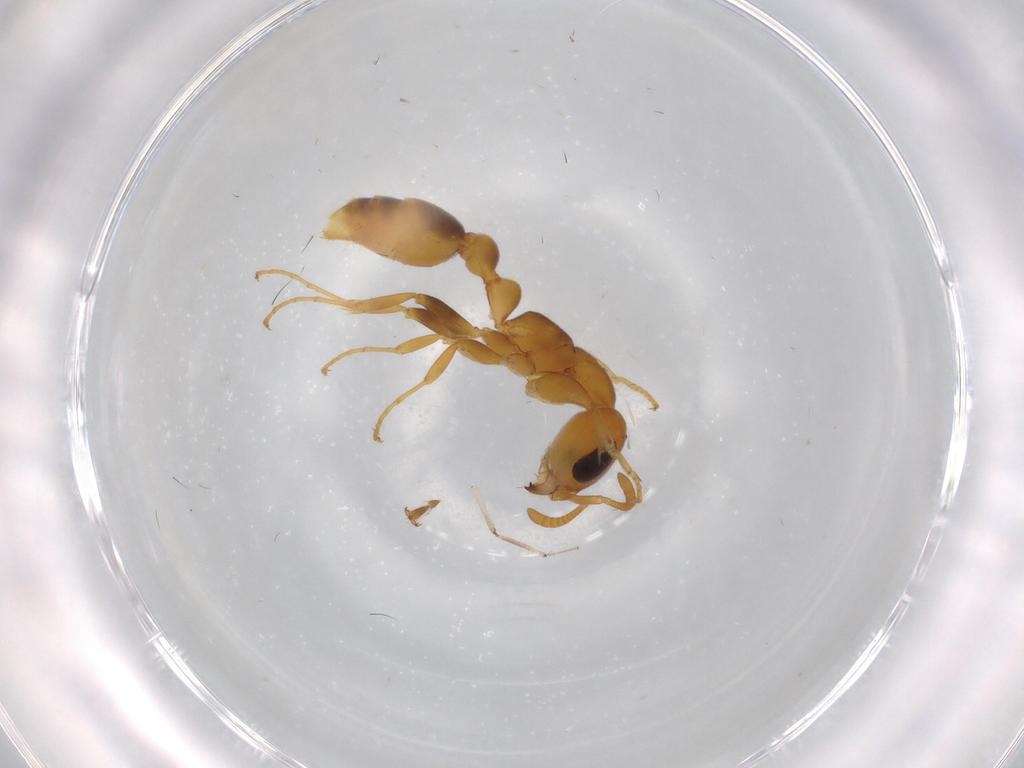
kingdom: Animalia
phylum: Arthropoda
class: Insecta
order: Hymenoptera
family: Formicidae
